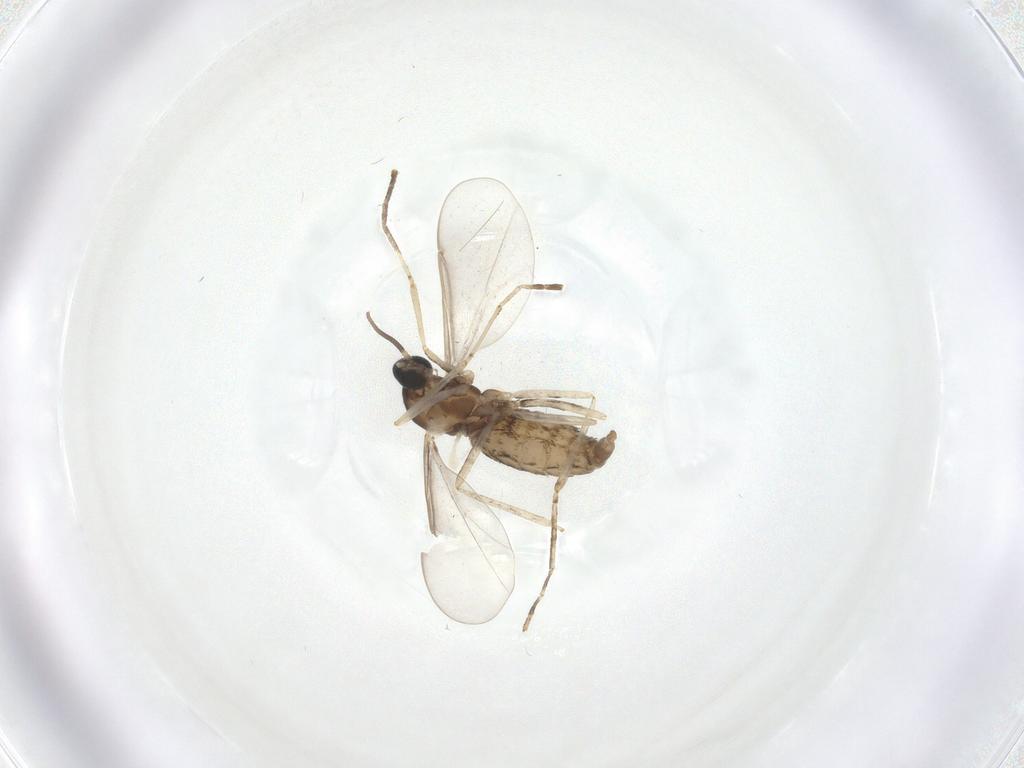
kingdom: Animalia
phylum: Arthropoda
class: Insecta
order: Diptera
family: Cecidomyiidae
